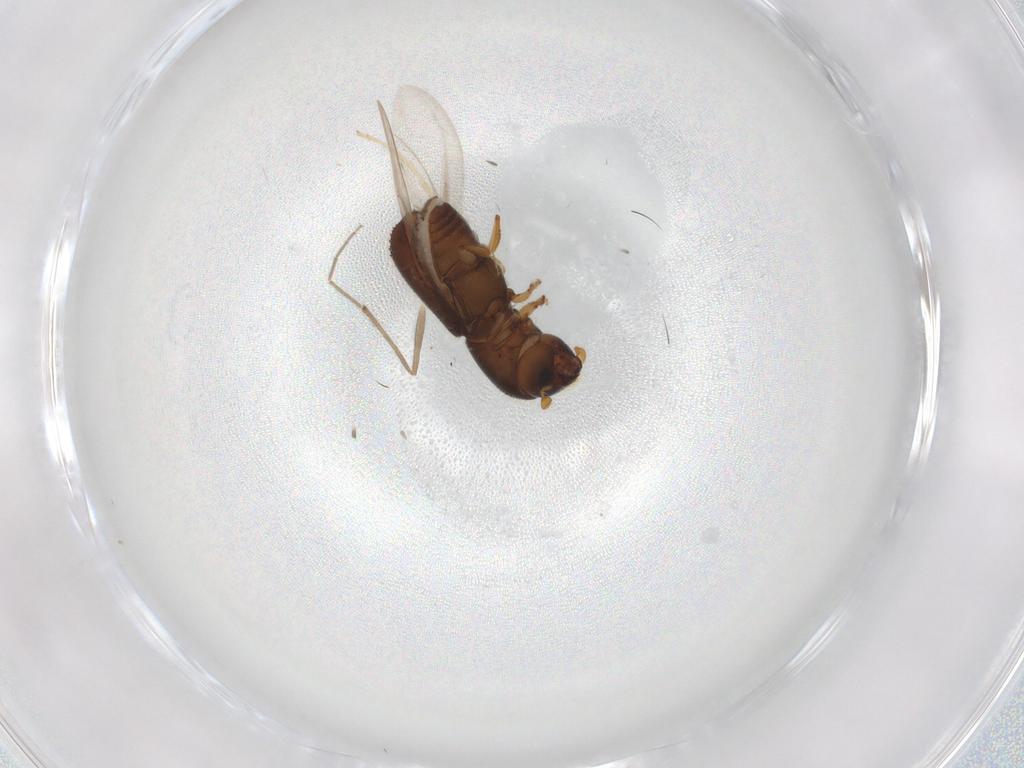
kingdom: Animalia
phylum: Arthropoda
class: Insecta
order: Coleoptera
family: Curculionidae
